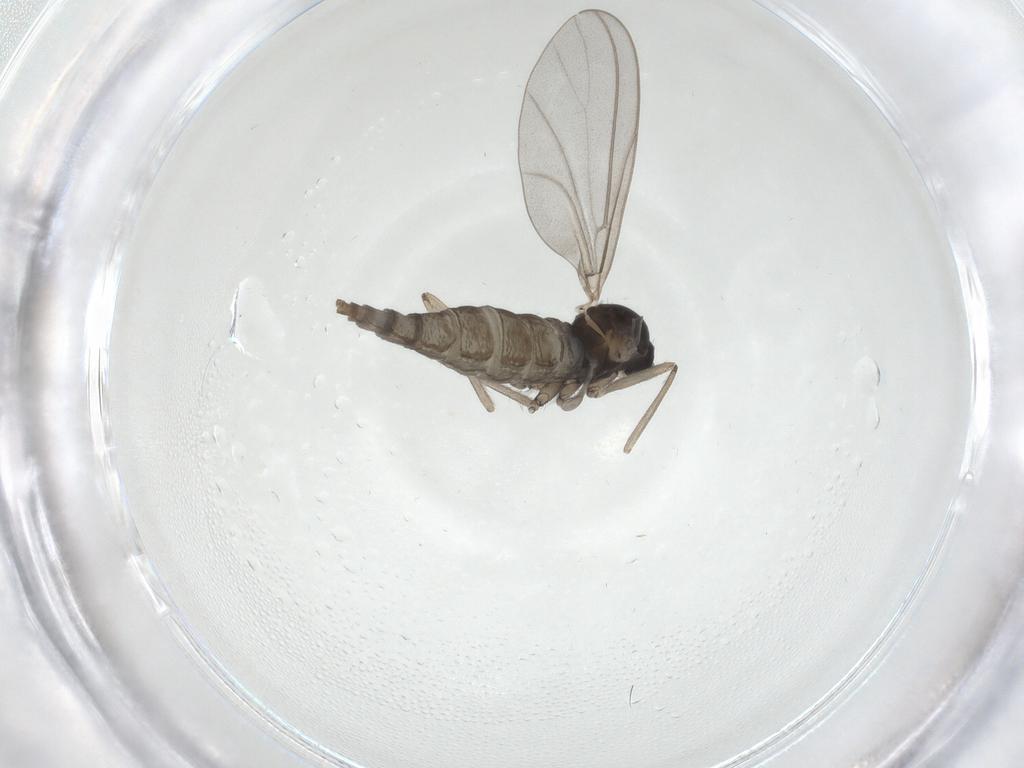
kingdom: Animalia
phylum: Arthropoda
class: Insecta
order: Diptera
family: Cecidomyiidae
